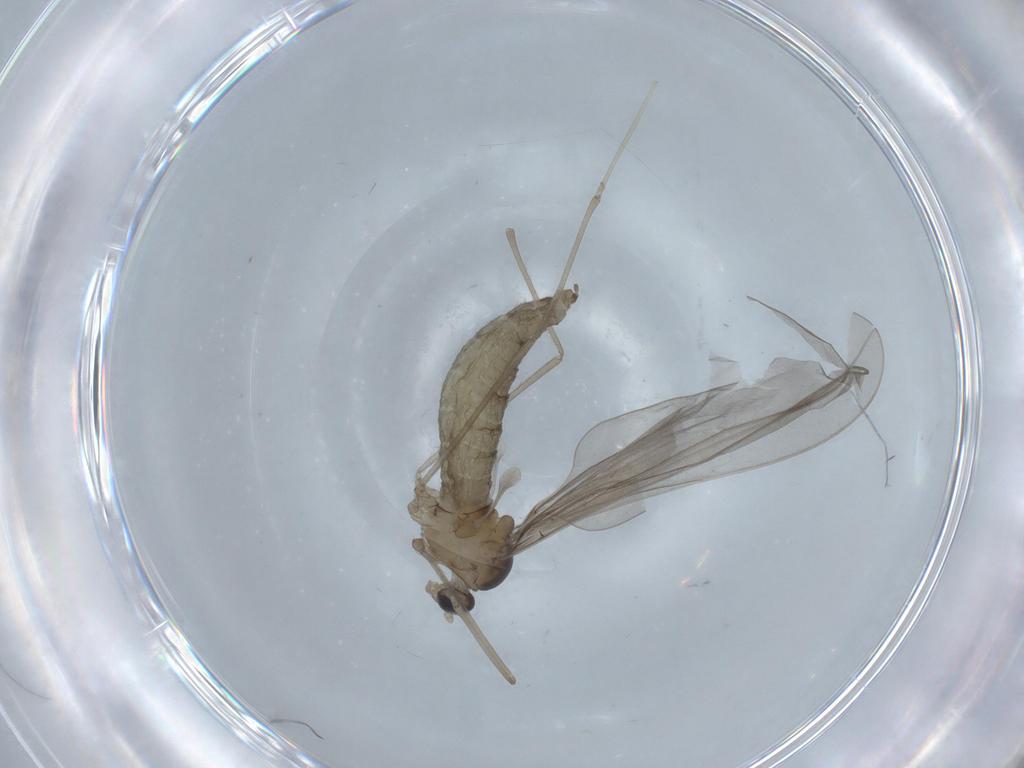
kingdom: Animalia
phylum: Arthropoda
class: Insecta
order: Diptera
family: Cecidomyiidae
